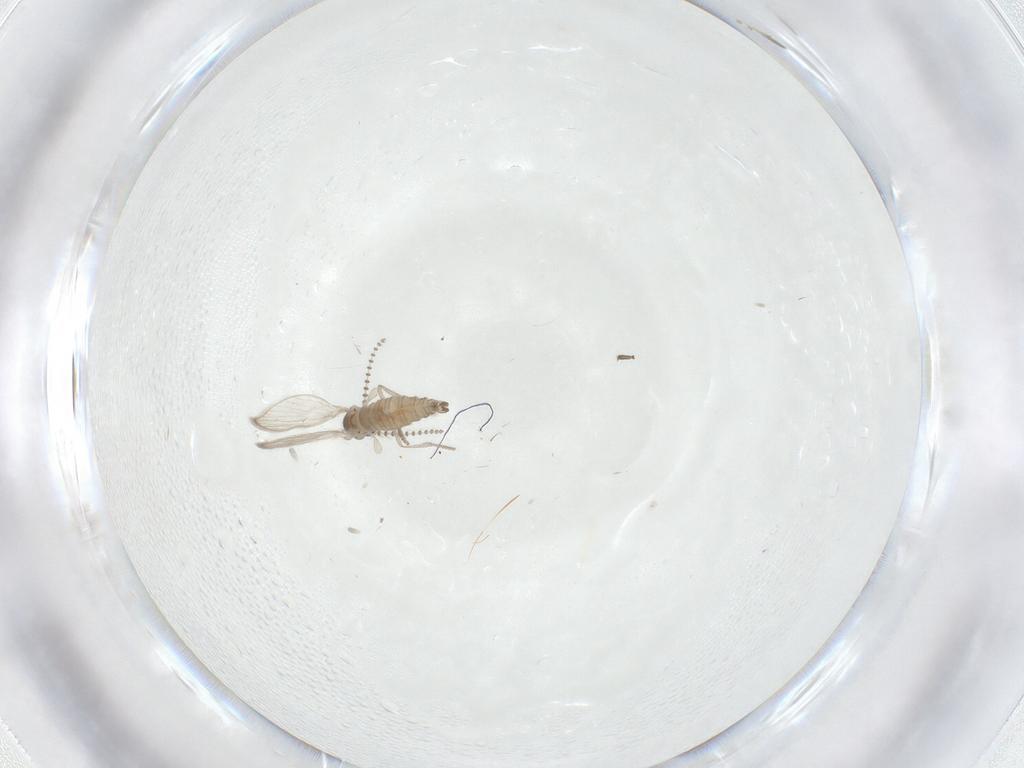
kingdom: Animalia
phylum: Arthropoda
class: Insecta
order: Diptera
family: Psychodidae
